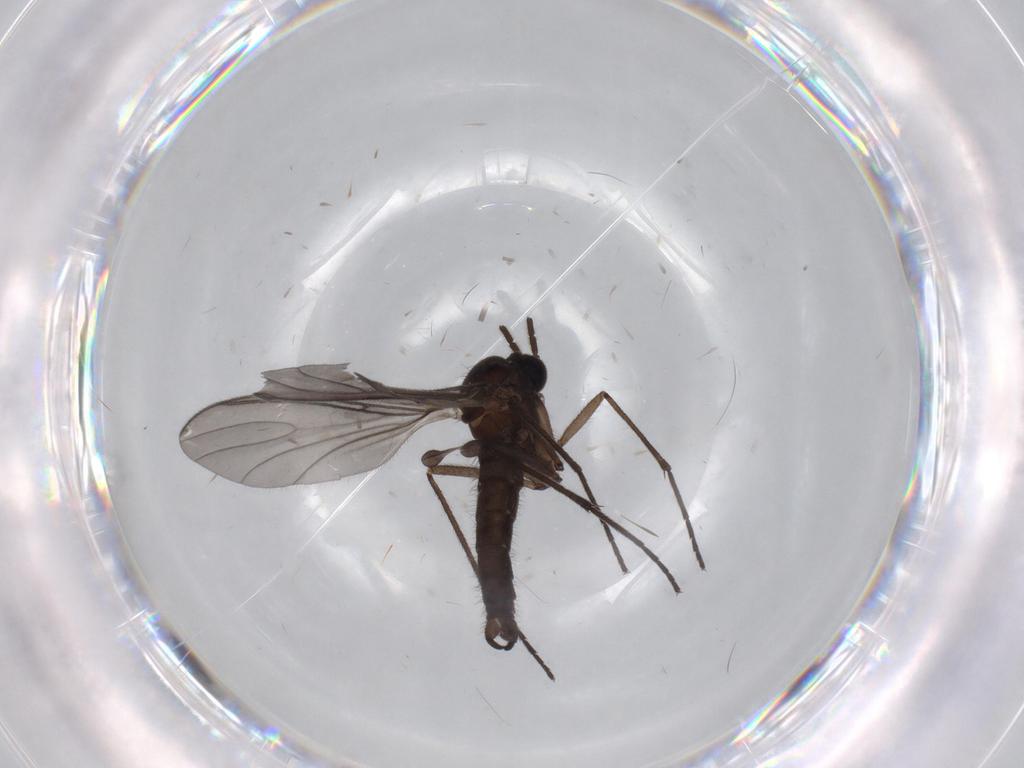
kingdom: Animalia
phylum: Arthropoda
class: Insecta
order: Diptera
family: Sciaridae
